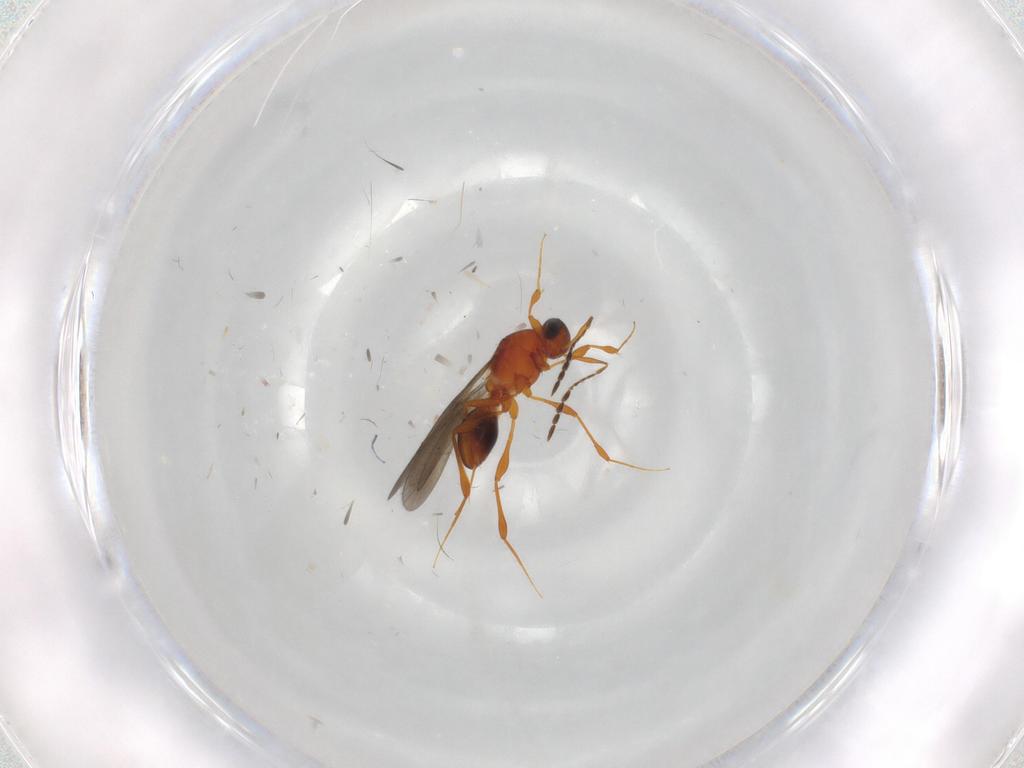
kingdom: Animalia
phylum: Arthropoda
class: Insecta
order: Hymenoptera
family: Platygastridae
